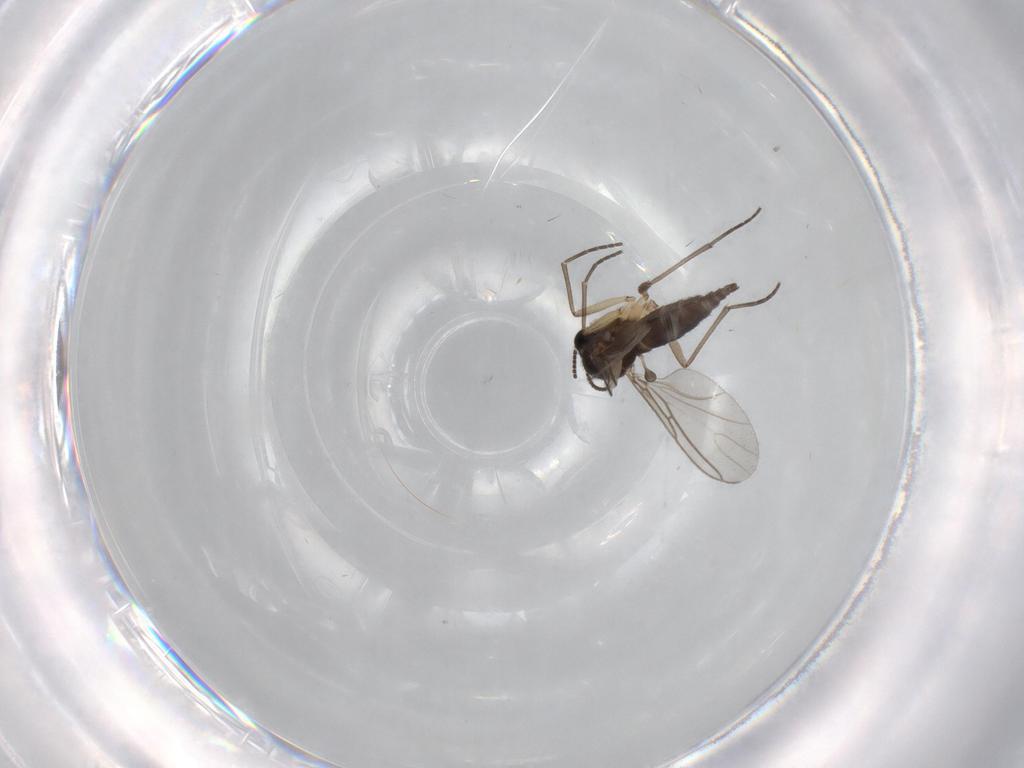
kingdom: Animalia
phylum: Arthropoda
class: Insecta
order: Diptera
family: Sciaridae
